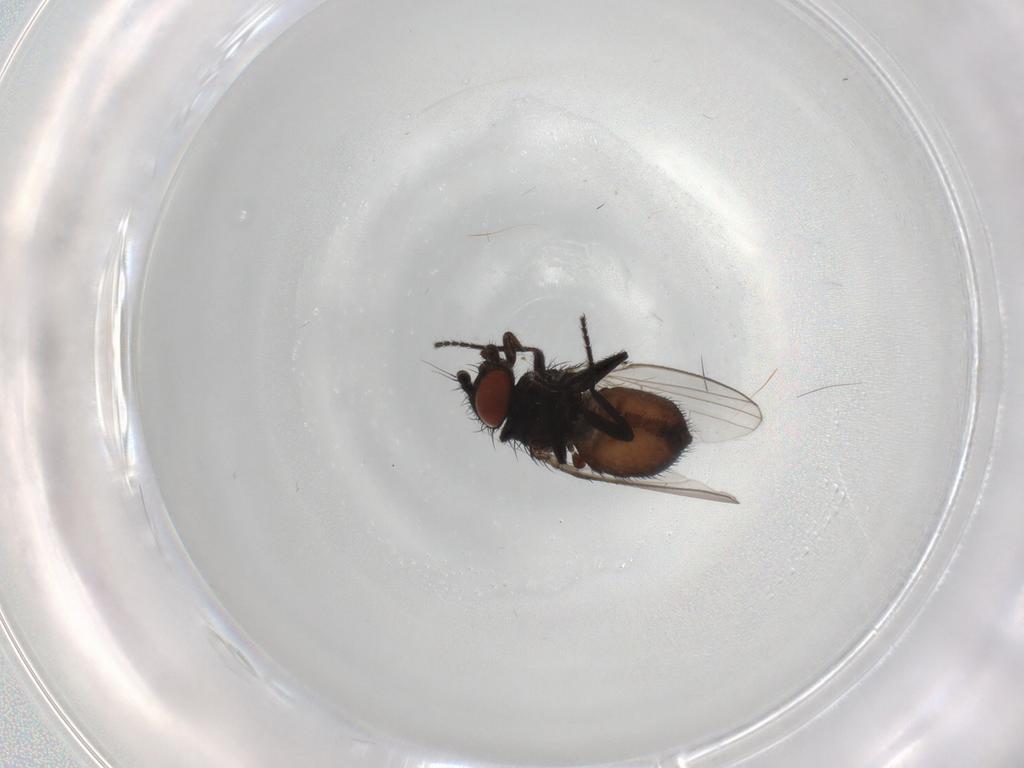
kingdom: Animalia
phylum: Arthropoda
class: Insecta
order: Diptera
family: Milichiidae
